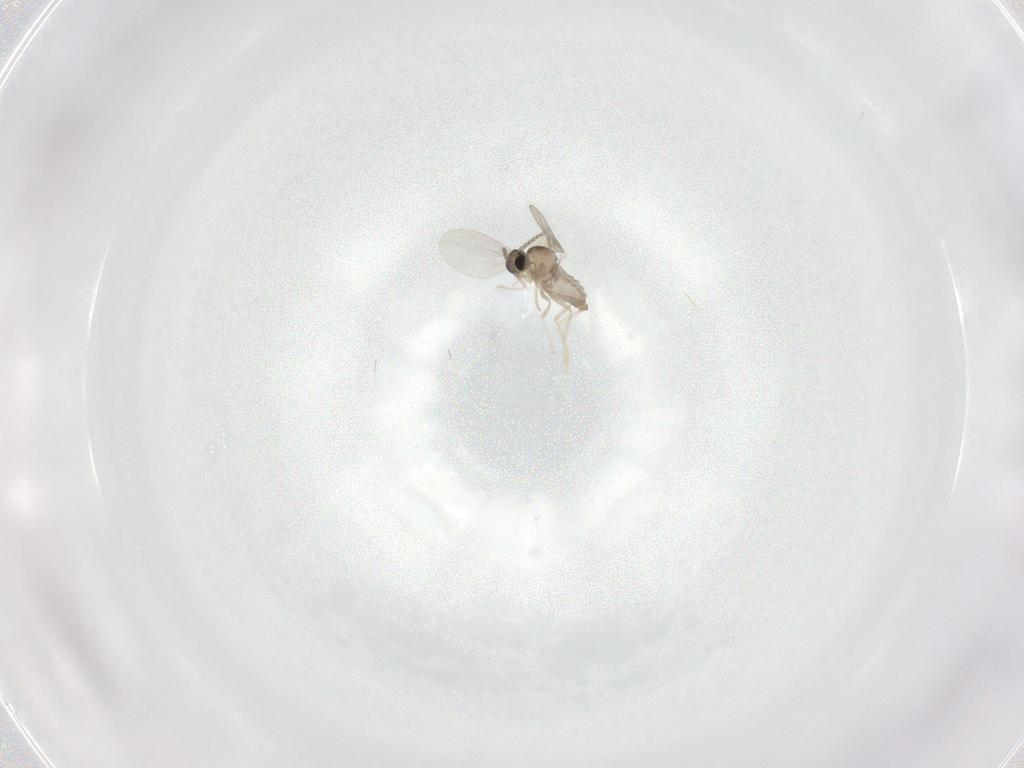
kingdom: Animalia
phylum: Arthropoda
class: Insecta
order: Diptera
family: Sciaridae
